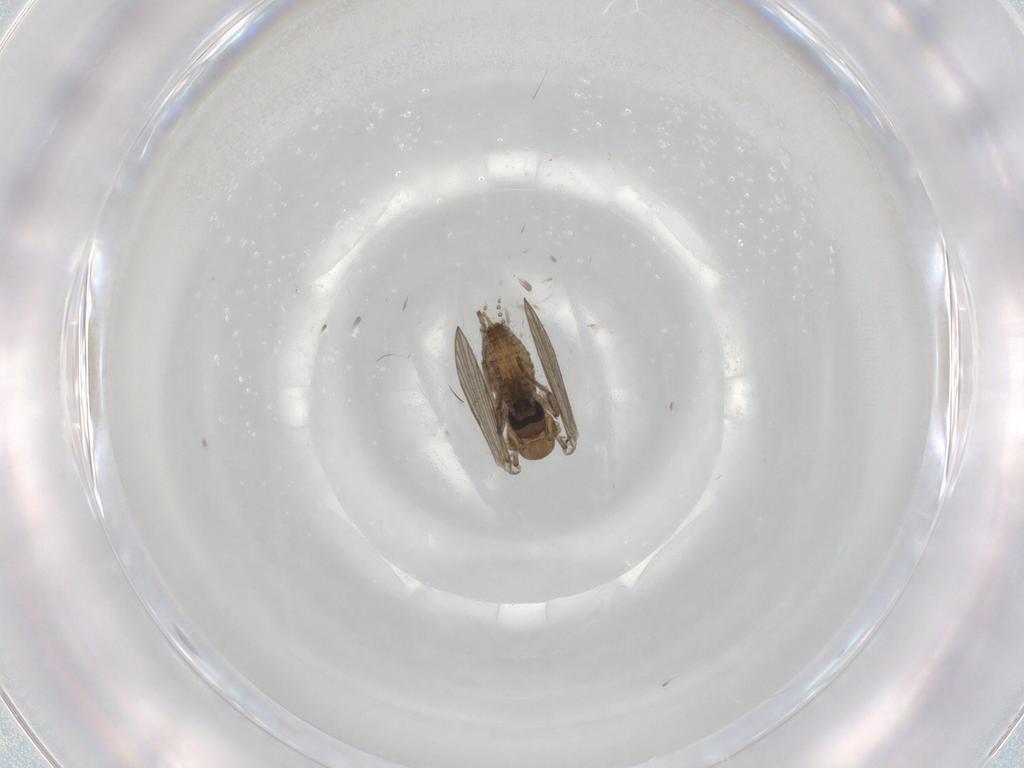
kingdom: Animalia
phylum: Arthropoda
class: Insecta
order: Diptera
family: Psychodidae
